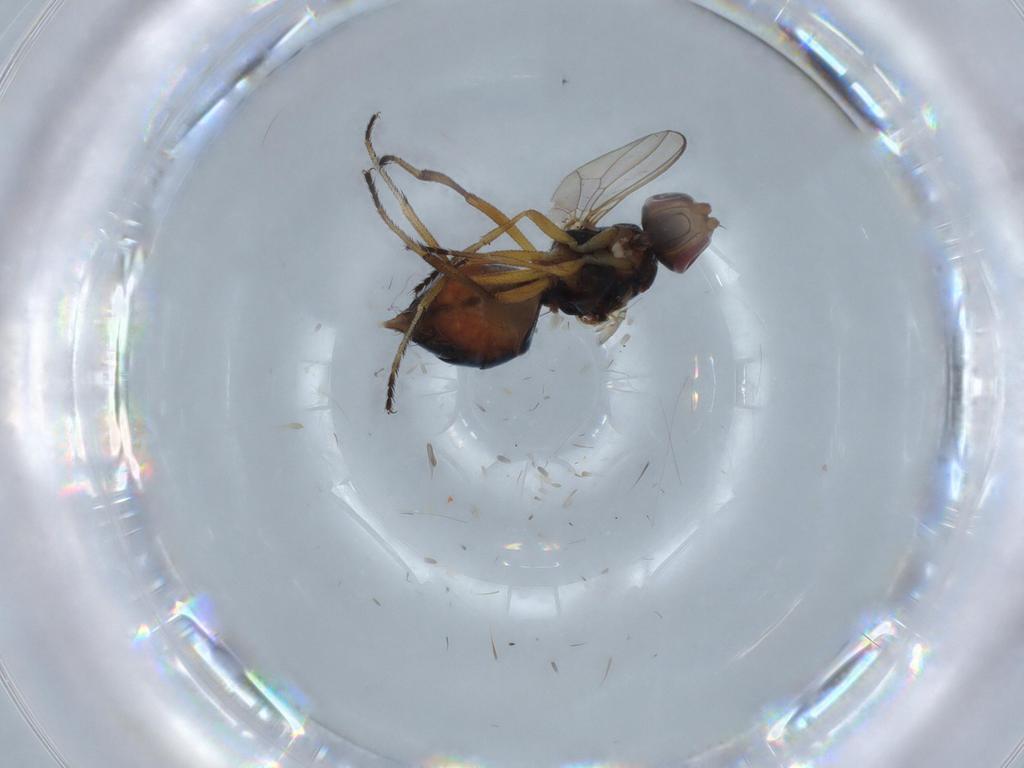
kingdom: Animalia
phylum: Arthropoda
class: Insecta
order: Diptera
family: Sepsidae
